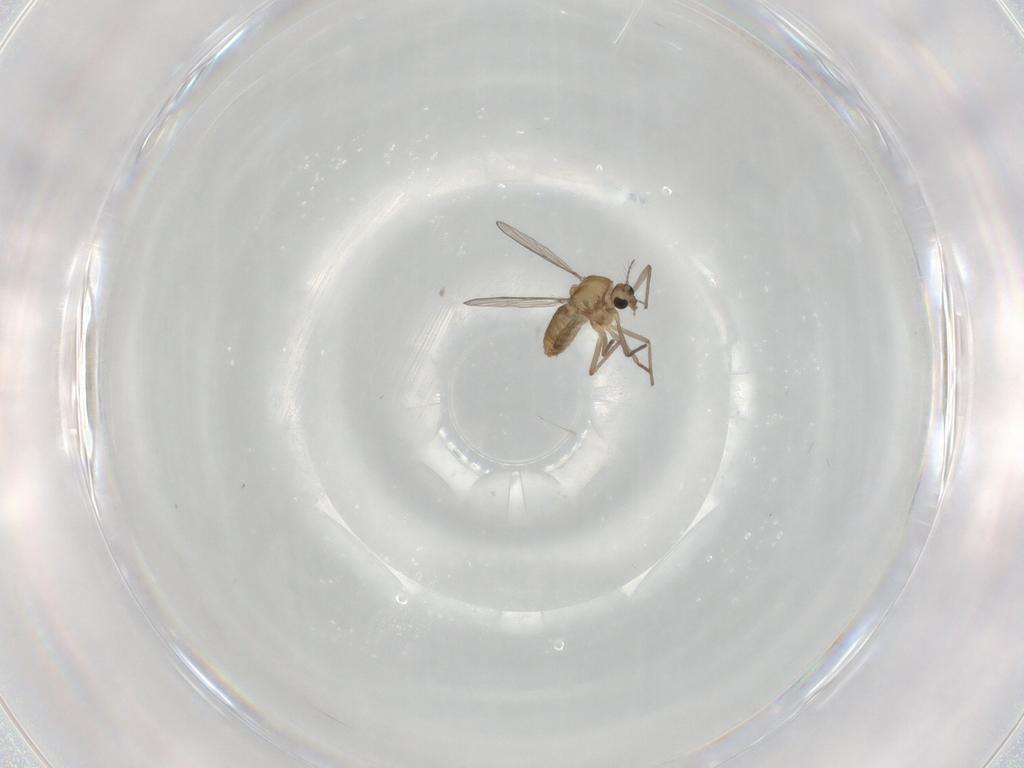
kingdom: Animalia
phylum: Arthropoda
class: Insecta
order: Diptera
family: Chironomidae
